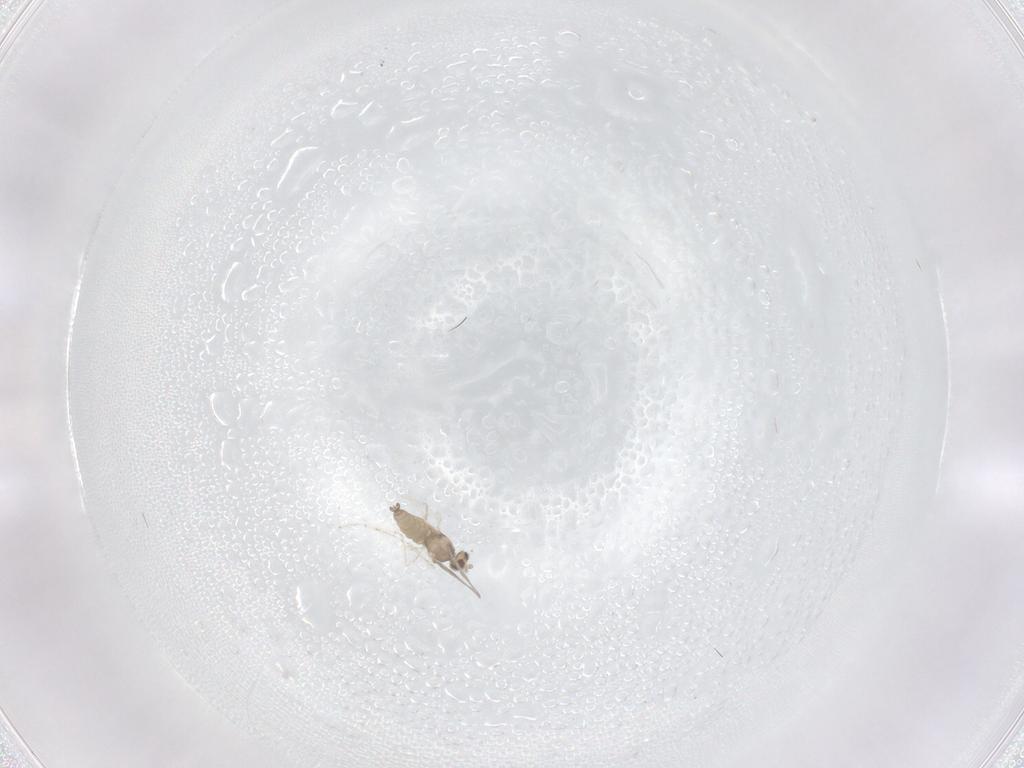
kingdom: Animalia
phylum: Arthropoda
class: Insecta
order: Diptera
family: Cecidomyiidae
